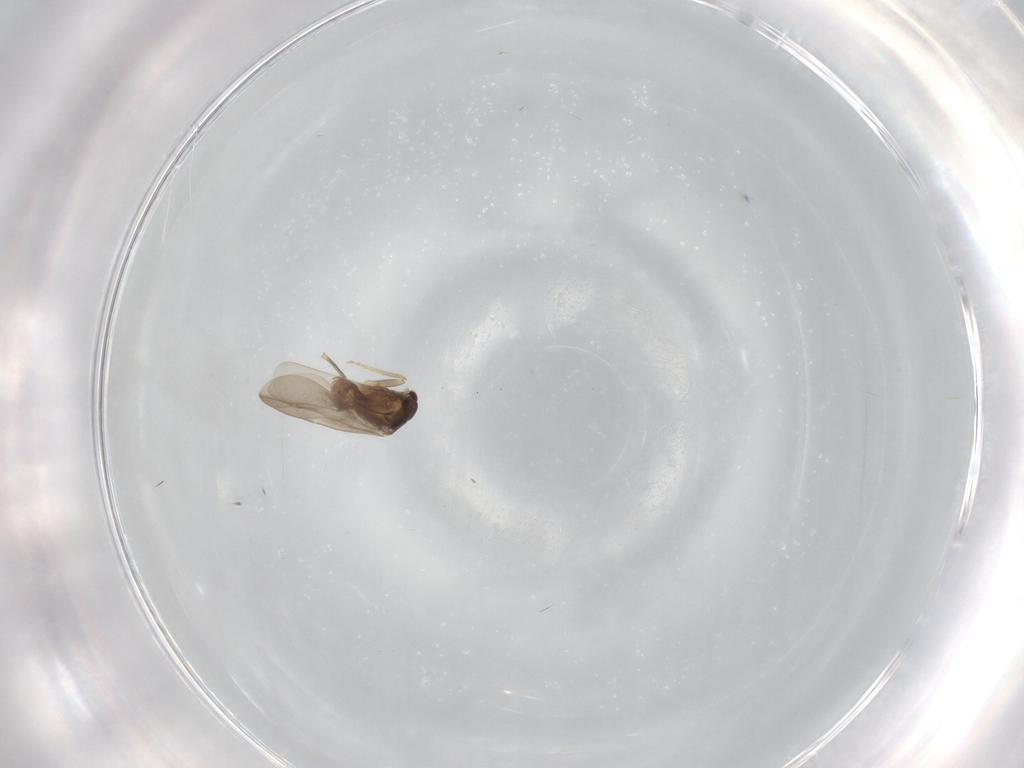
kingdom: Animalia
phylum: Arthropoda
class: Insecta
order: Hemiptera
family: Ceratocombidae
